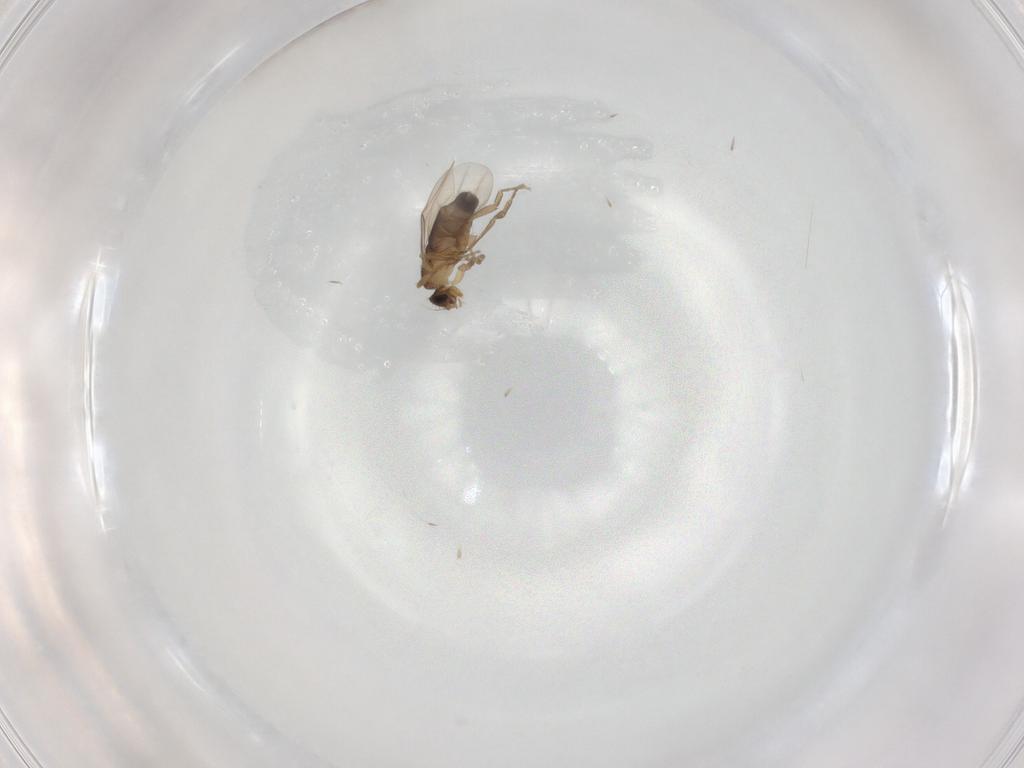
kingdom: Animalia
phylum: Arthropoda
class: Insecta
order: Diptera
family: Phoridae
